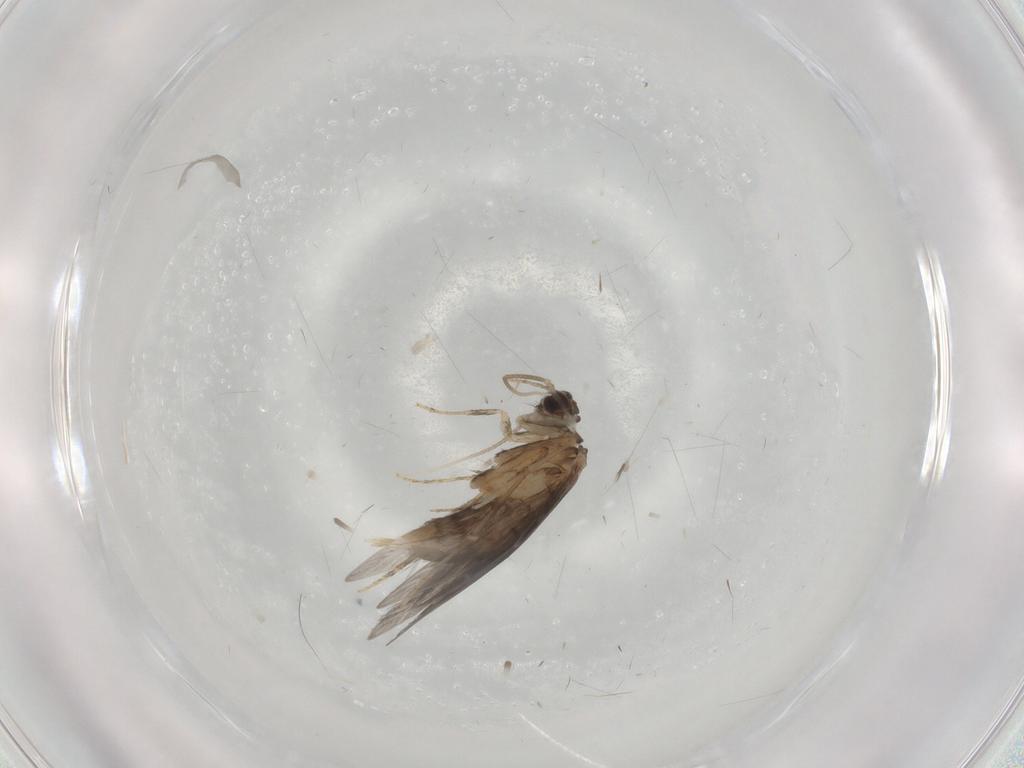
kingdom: Animalia
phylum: Arthropoda
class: Insecta
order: Trichoptera
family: Hydroptilidae
